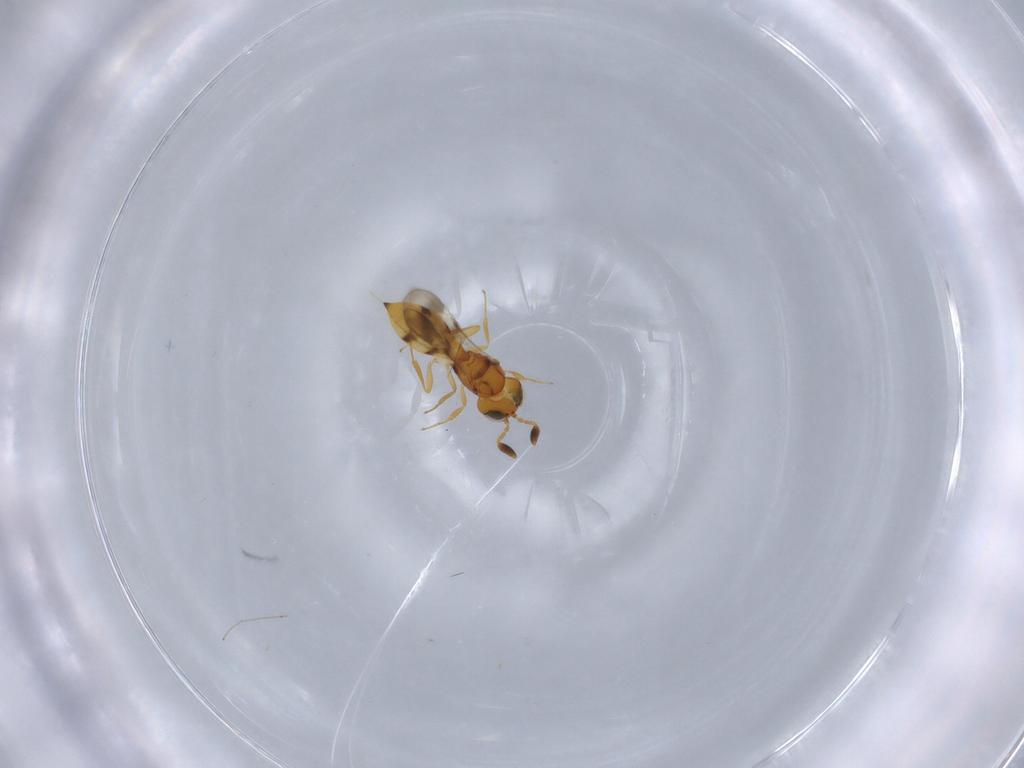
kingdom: Animalia
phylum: Arthropoda
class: Insecta
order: Hymenoptera
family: Scelionidae
